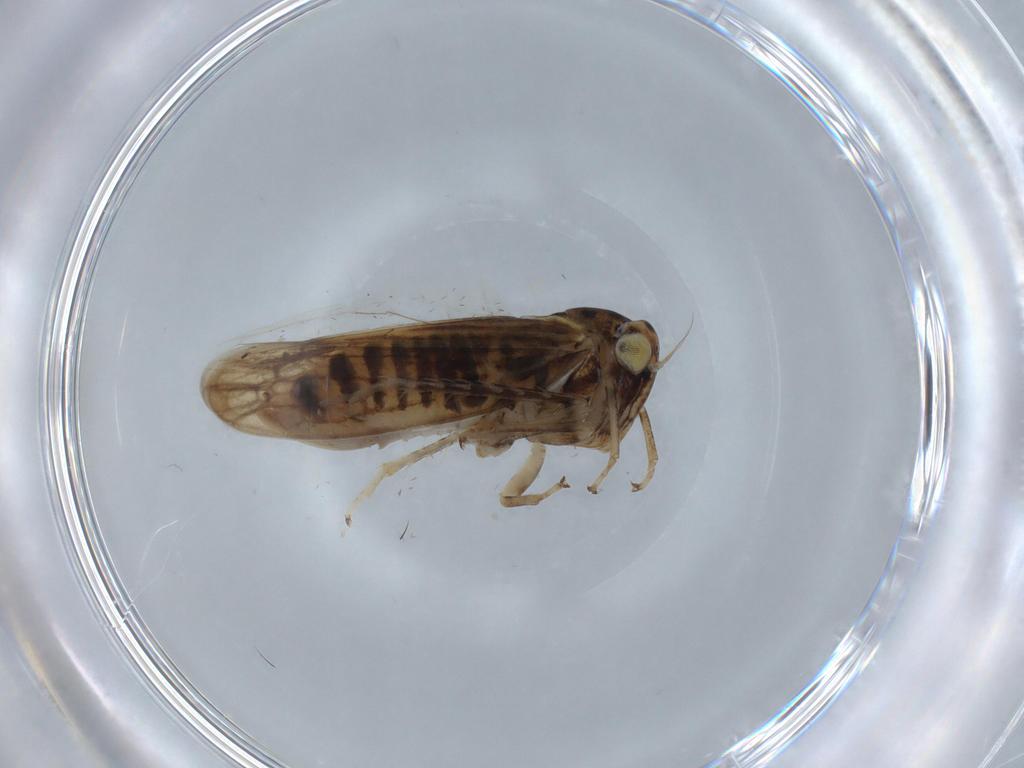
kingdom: Animalia
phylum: Arthropoda
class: Insecta
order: Hemiptera
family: Cicadellidae
